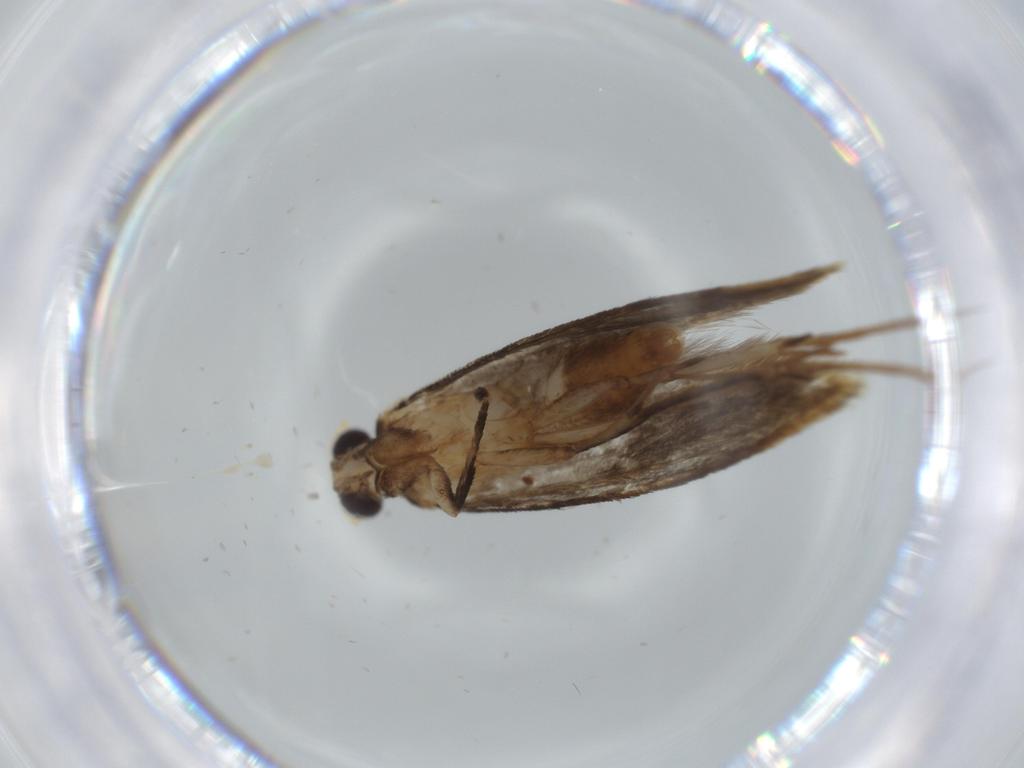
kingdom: Animalia
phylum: Arthropoda
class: Insecta
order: Lepidoptera
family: Tineidae
